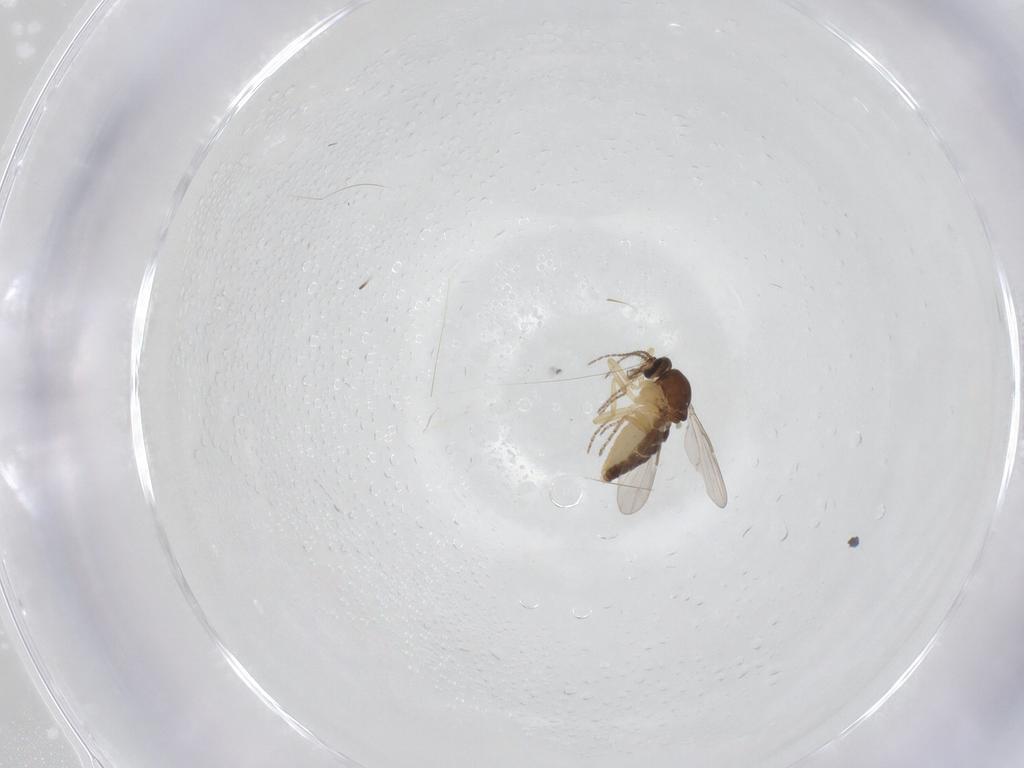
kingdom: Animalia
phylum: Arthropoda
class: Insecta
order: Diptera
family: Ceratopogonidae
